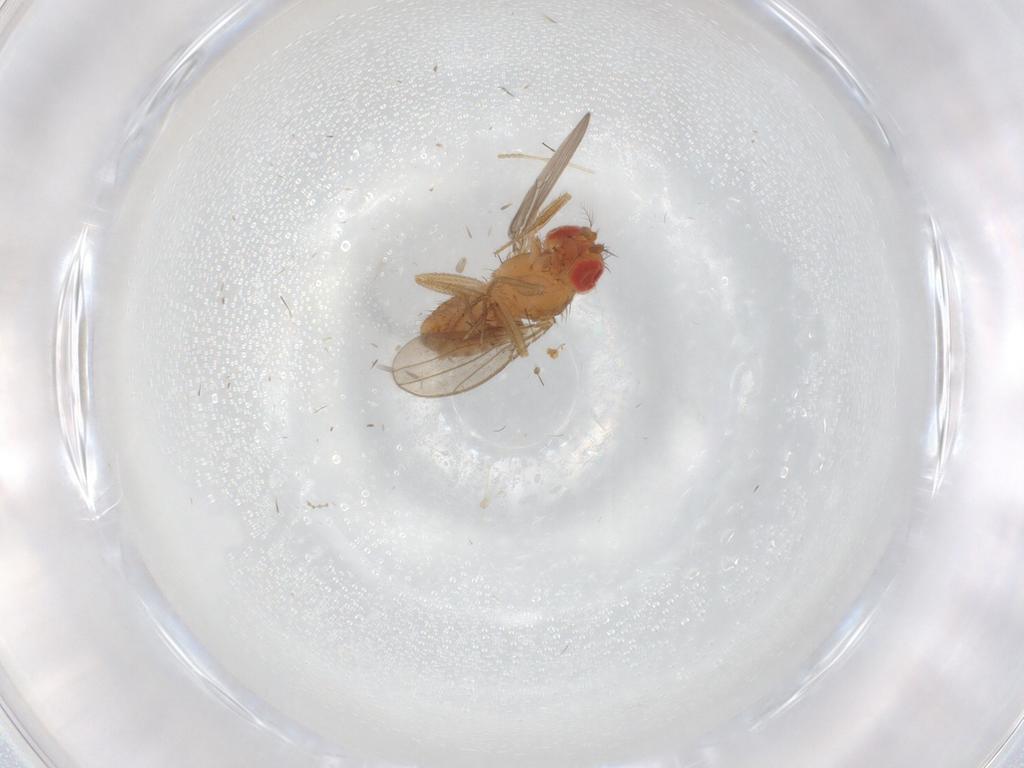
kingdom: Animalia
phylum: Arthropoda
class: Insecta
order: Diptera
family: Drosophilidae
